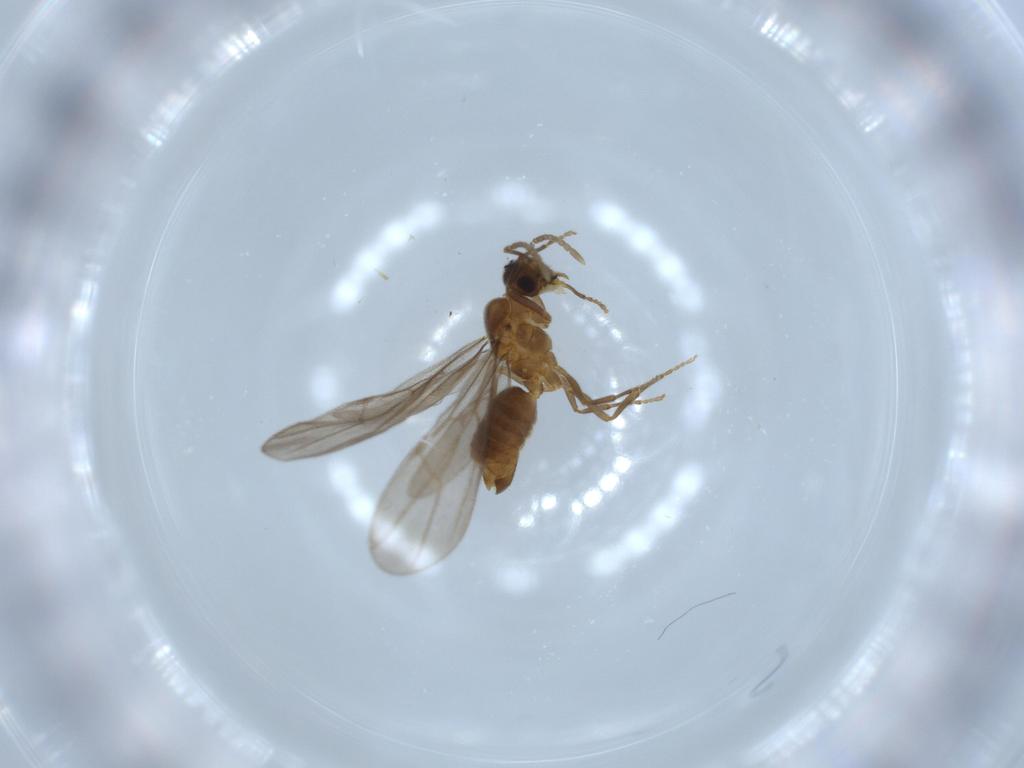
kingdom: Animalia
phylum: Arthropoda
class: Insecta
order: Hymenoptera
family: Formicidae
